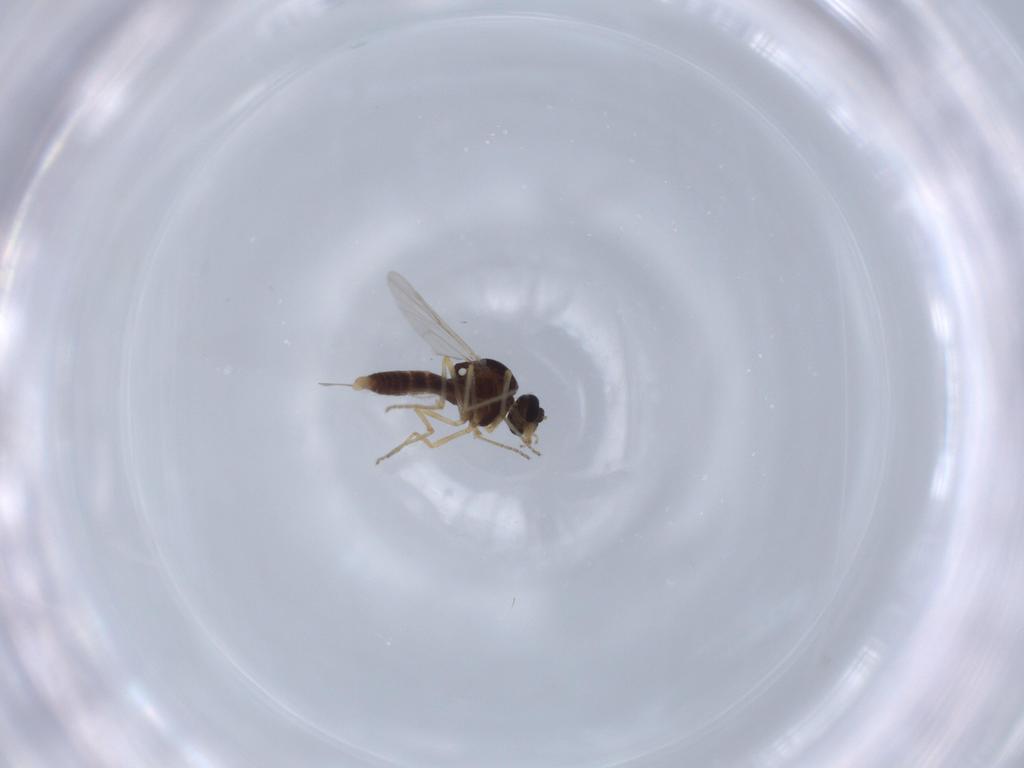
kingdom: Animalia
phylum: Arthropoda
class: Insecta
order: Diptera
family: Ceratopogonidae
